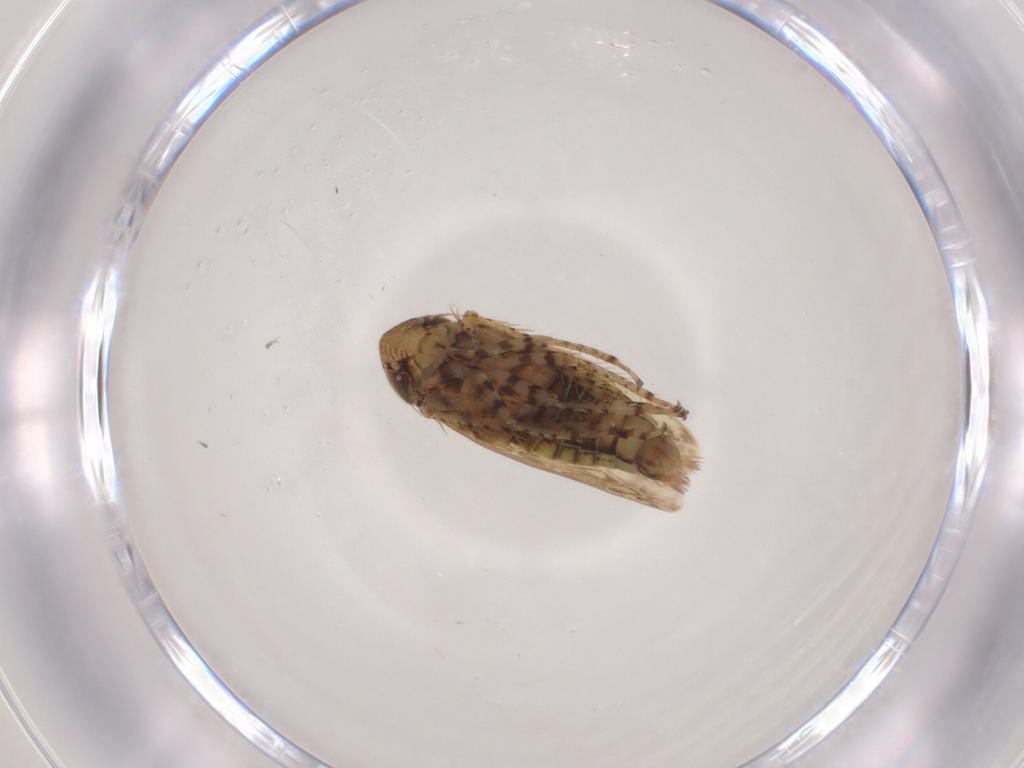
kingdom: Animalia
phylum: Arthropoda
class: Insecta
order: Hemiptera
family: Cicadellidae
